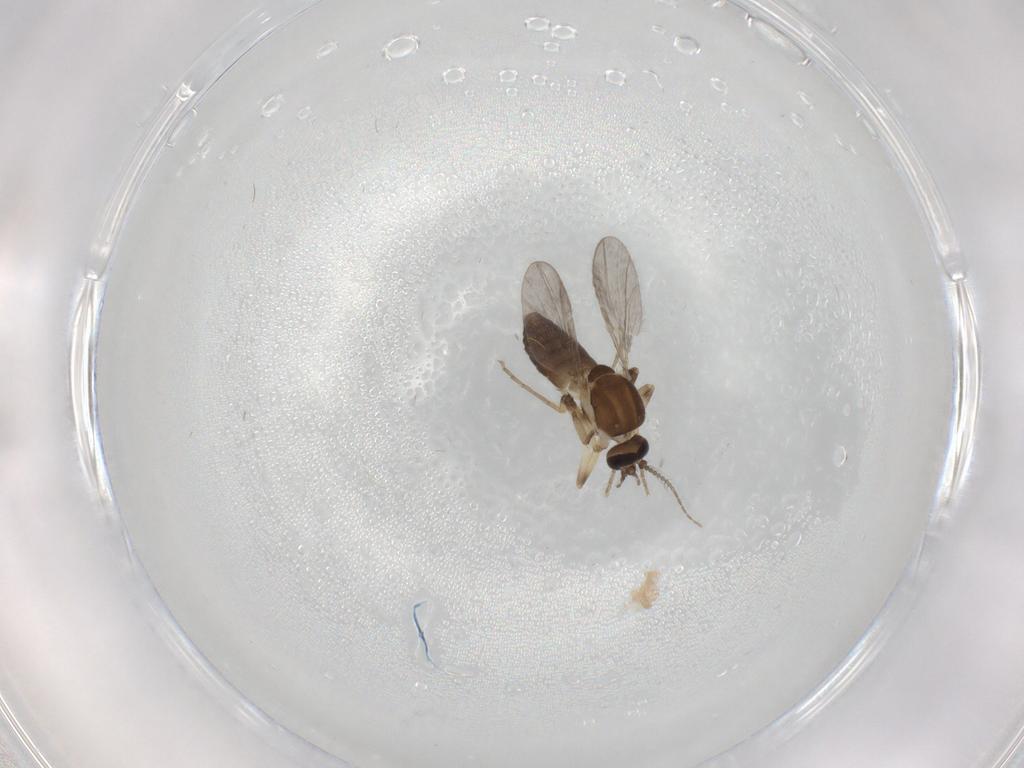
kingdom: Animalia
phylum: Arthropoda
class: Insecta
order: Diptera
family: Ceratopogonidae
